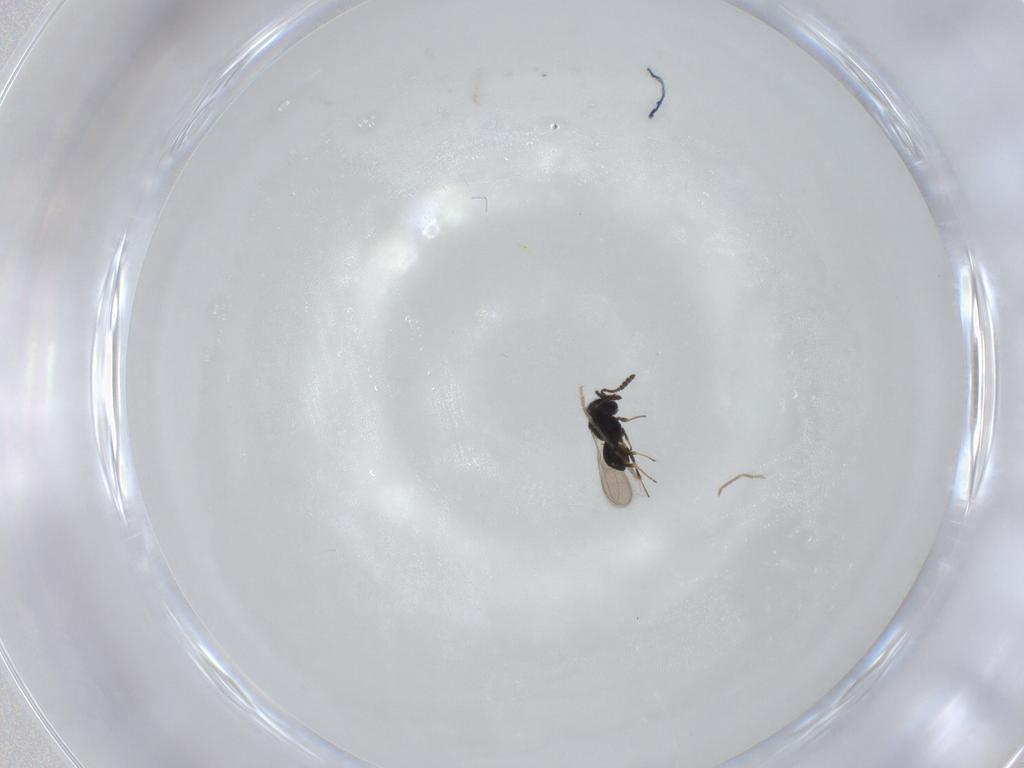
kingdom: Animalia
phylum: Arthropoda
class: Insecta
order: Hymenoptera
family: Scelionidae
